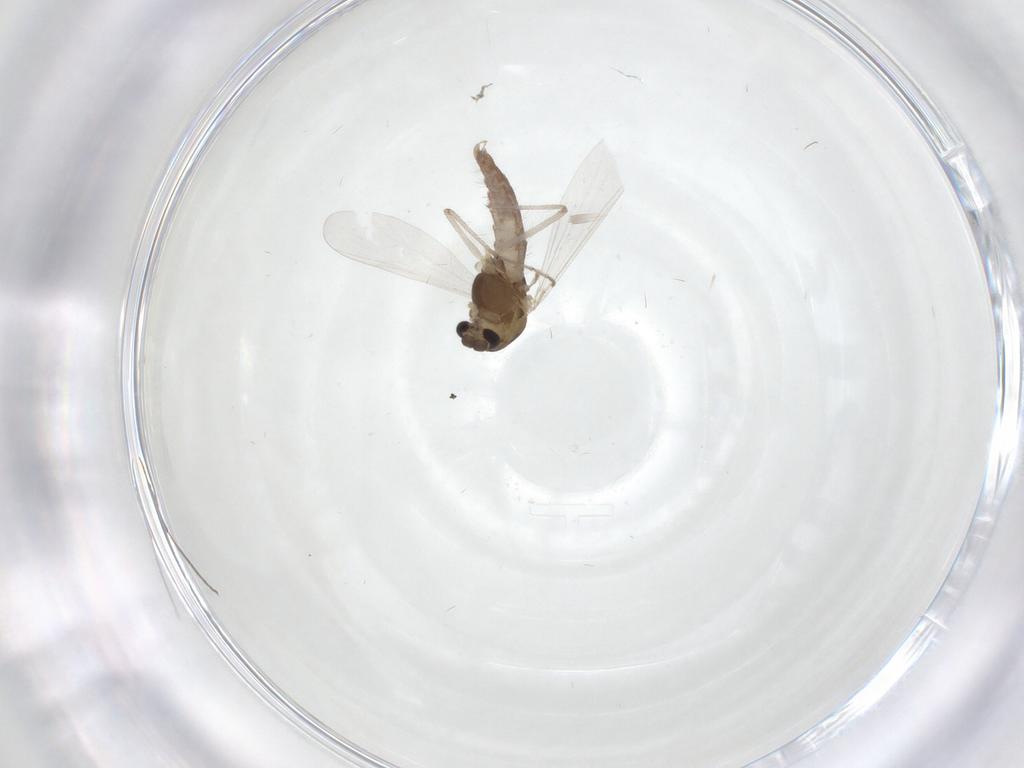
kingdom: Animalia
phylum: Arthropoda
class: Insecta
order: Diptera
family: Chironomidae
